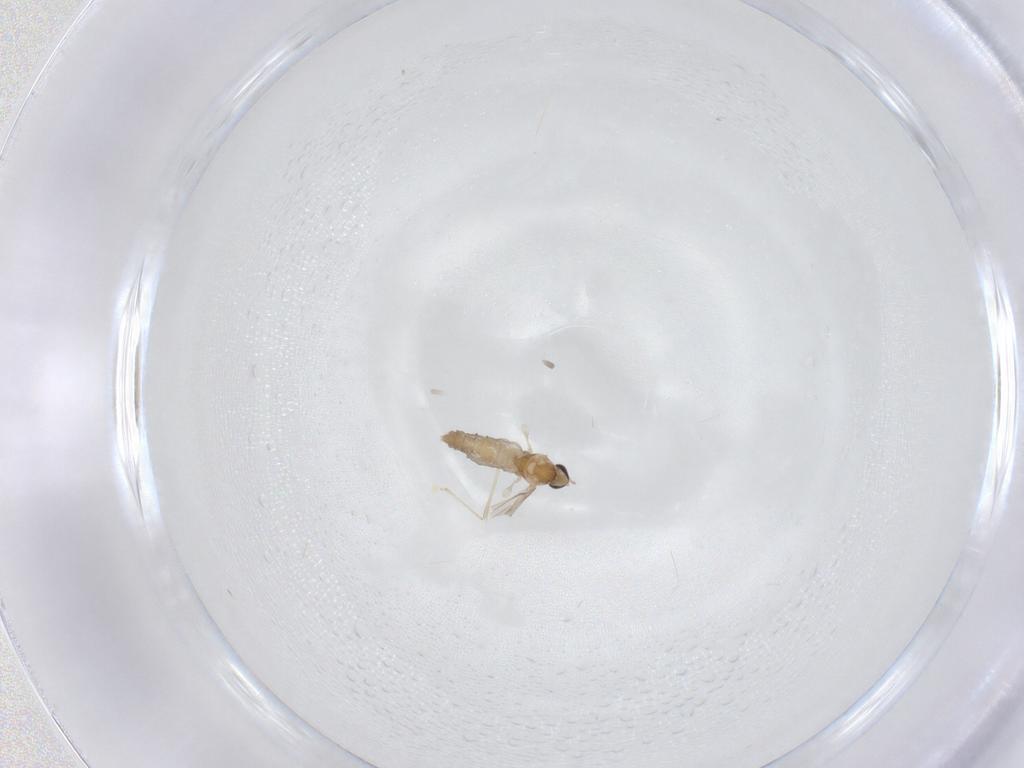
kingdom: Animalia
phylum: Arthropoda
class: Insecta
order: Diptera
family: Cecidomyiidae
